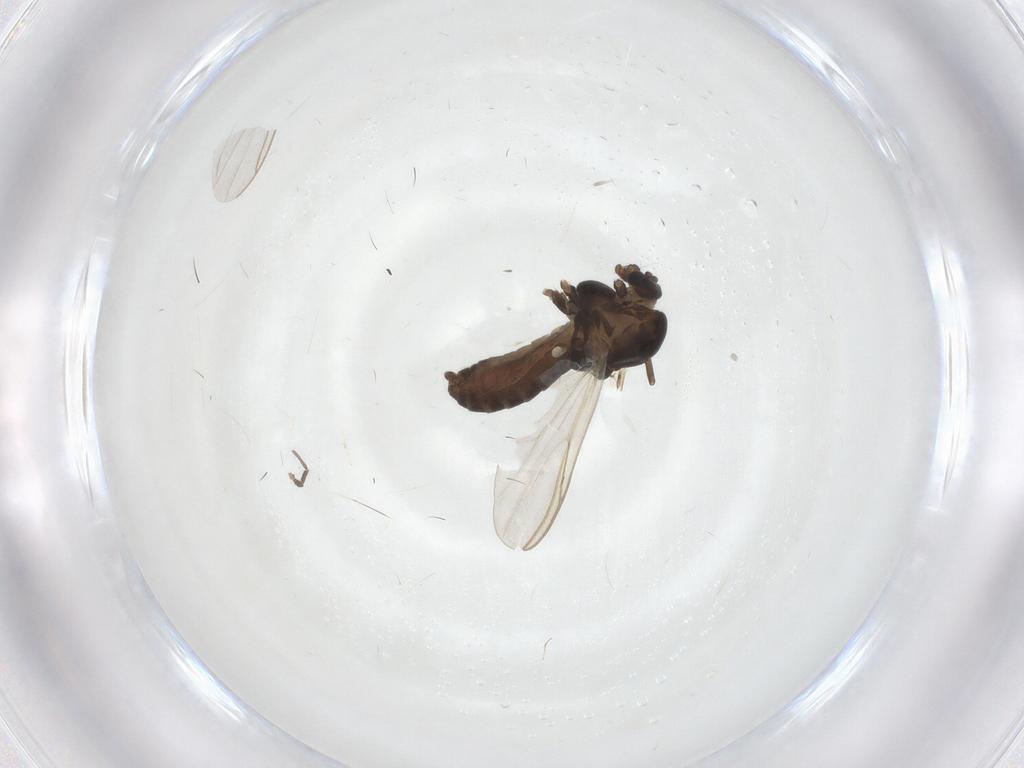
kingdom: Animalia
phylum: Arthropoda
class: Insecta
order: Diptera
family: Chironomidae
